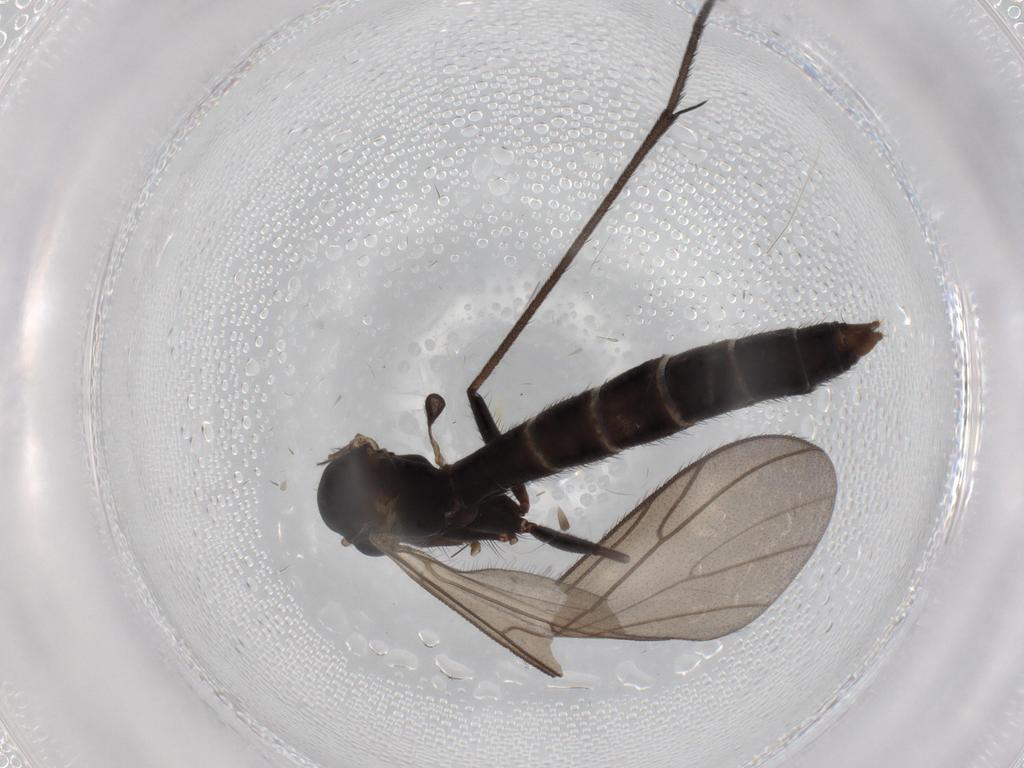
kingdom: Animalia
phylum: Arthropoda
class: Insecta
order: Diptera
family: Ditomyiidae
